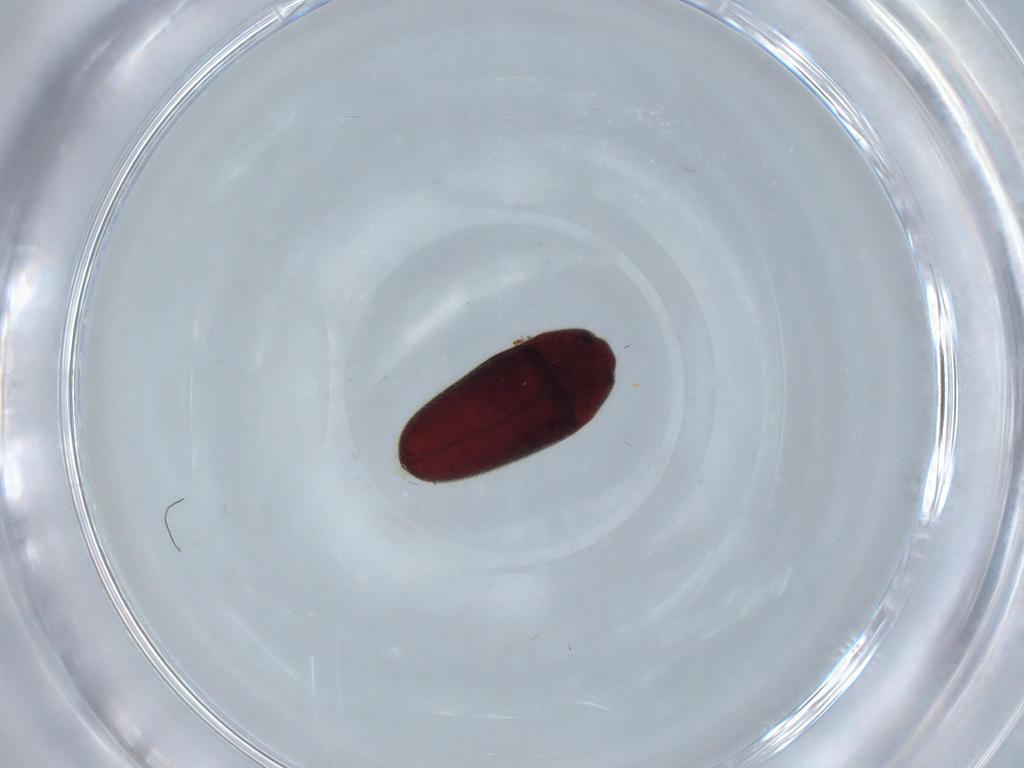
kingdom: Animalia
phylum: Arthropoda
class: Insecta
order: Coleoptera
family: Throscidae
